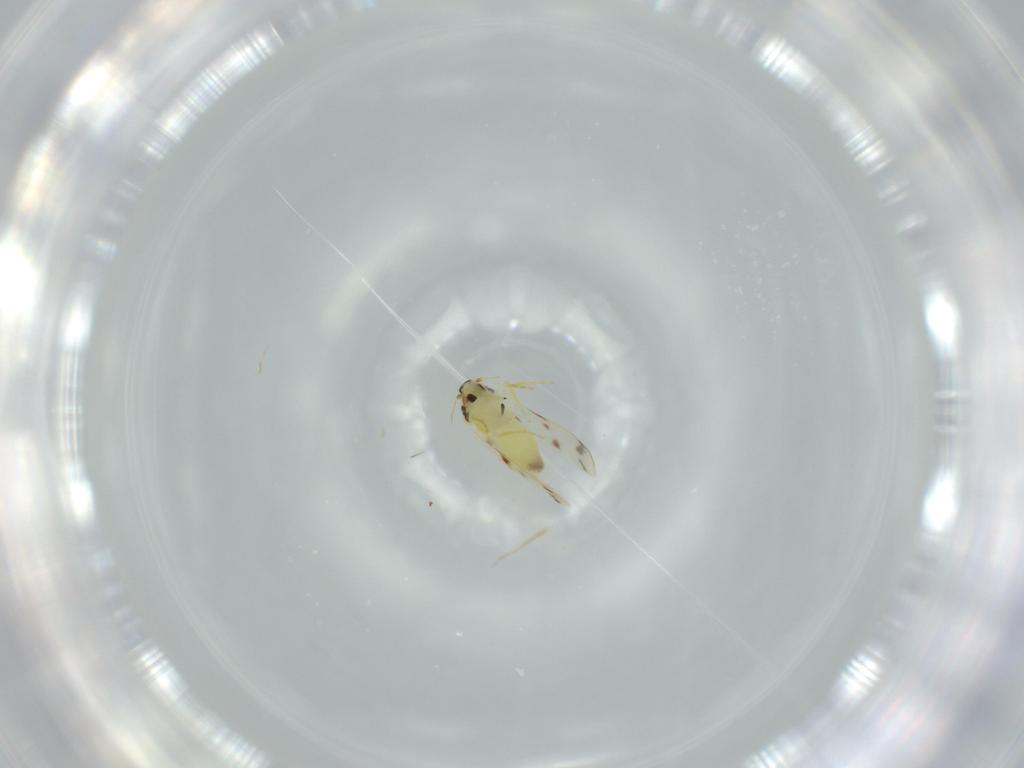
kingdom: Animalia
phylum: Arthropoda
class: Insecta
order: Hemiptera
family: Aleyrodidae
